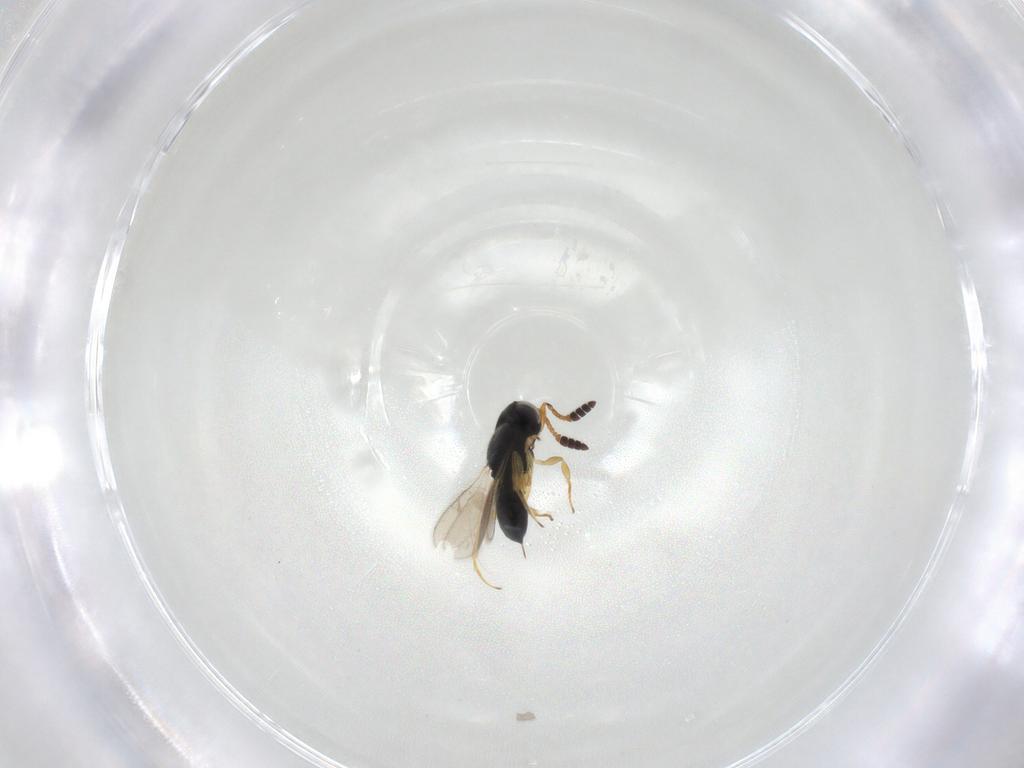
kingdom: Animalia
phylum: Arthropoda
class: Insecta
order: Hymenoptera
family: Scelionidae
